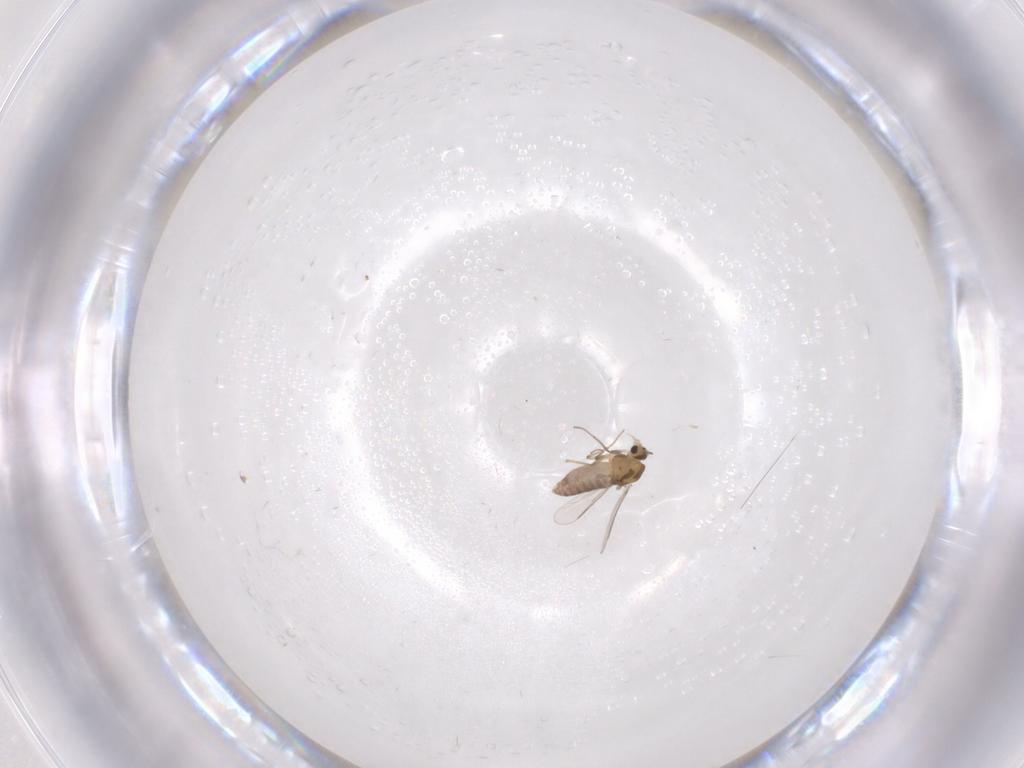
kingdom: Animalia
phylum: Arthropoda
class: Insecta
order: Diptera
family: Chironomidae
